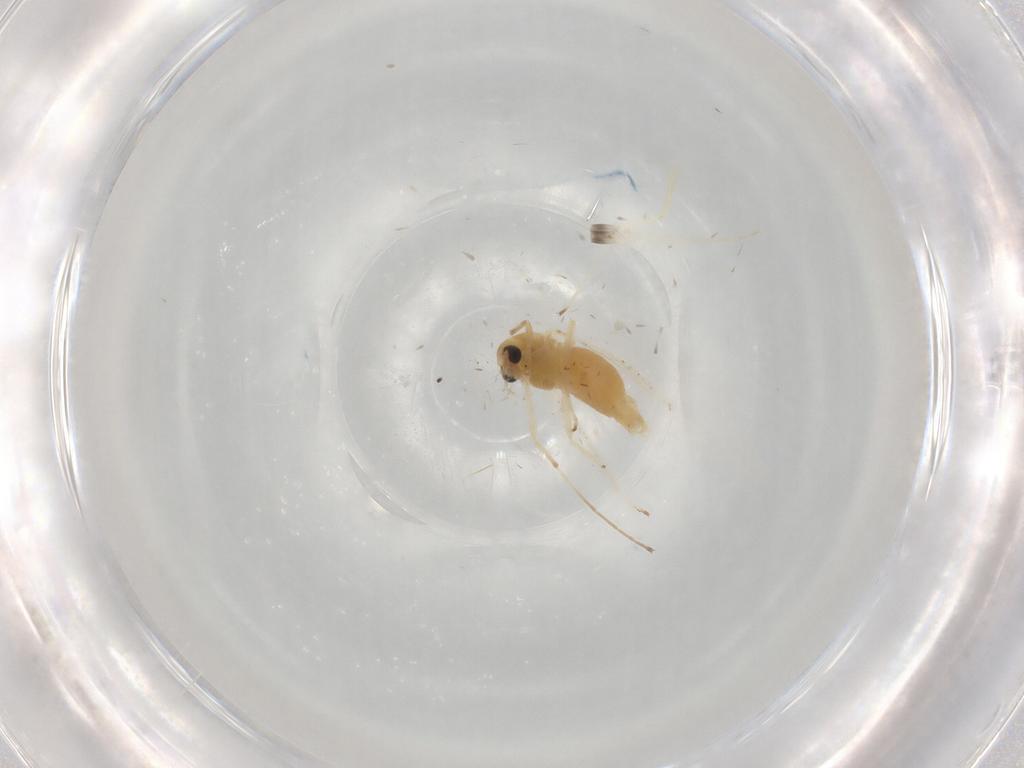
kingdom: Animalia
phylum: Arthropoda
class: Insecta
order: Diptera
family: Chironomidae
